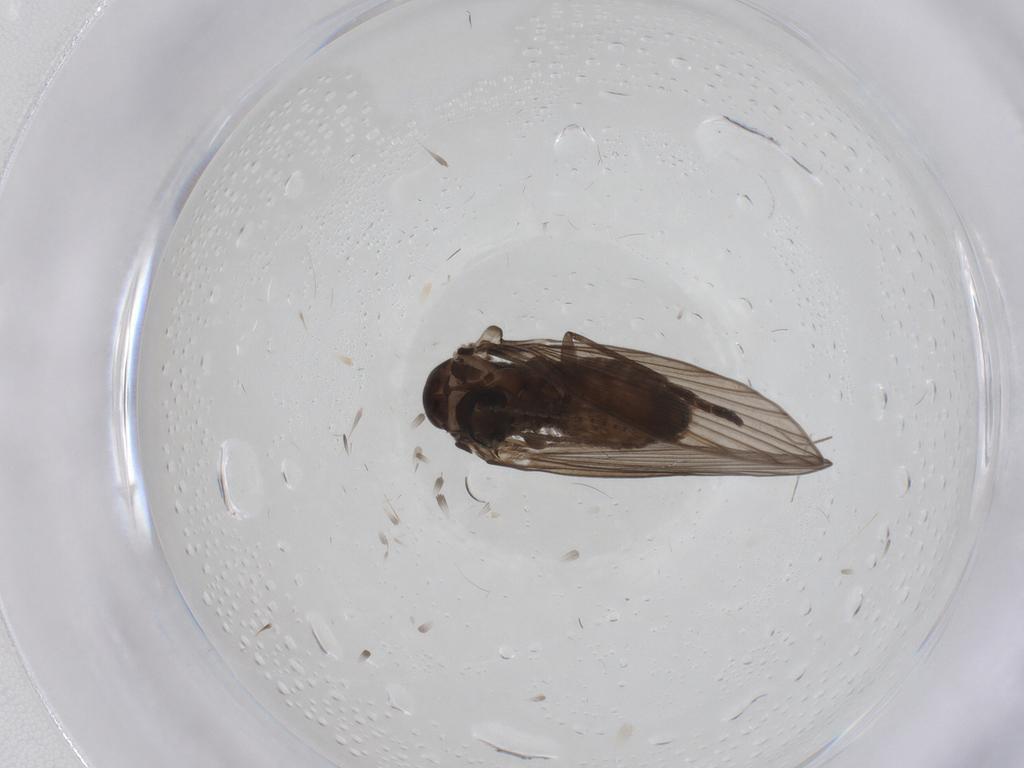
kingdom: Animalia
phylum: Arthropoda
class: Insecta
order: Diptera
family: Psychodidae
